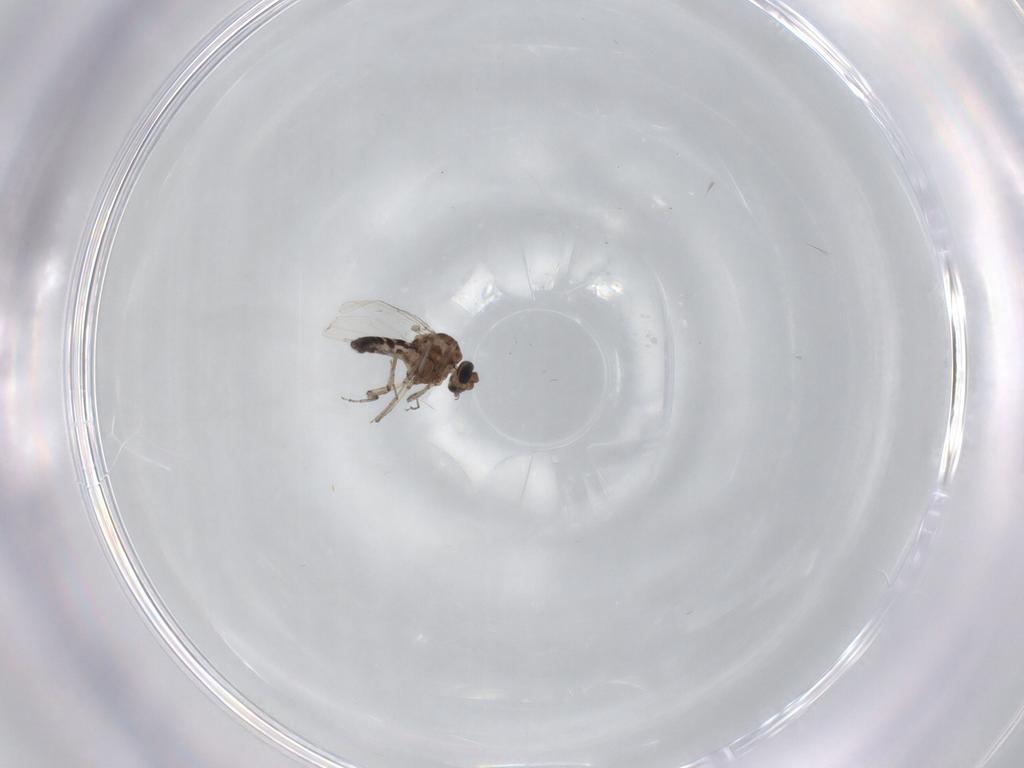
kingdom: Animalia
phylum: Arthropoda
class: Insecta
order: Diptera
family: Ceratopogonidae
